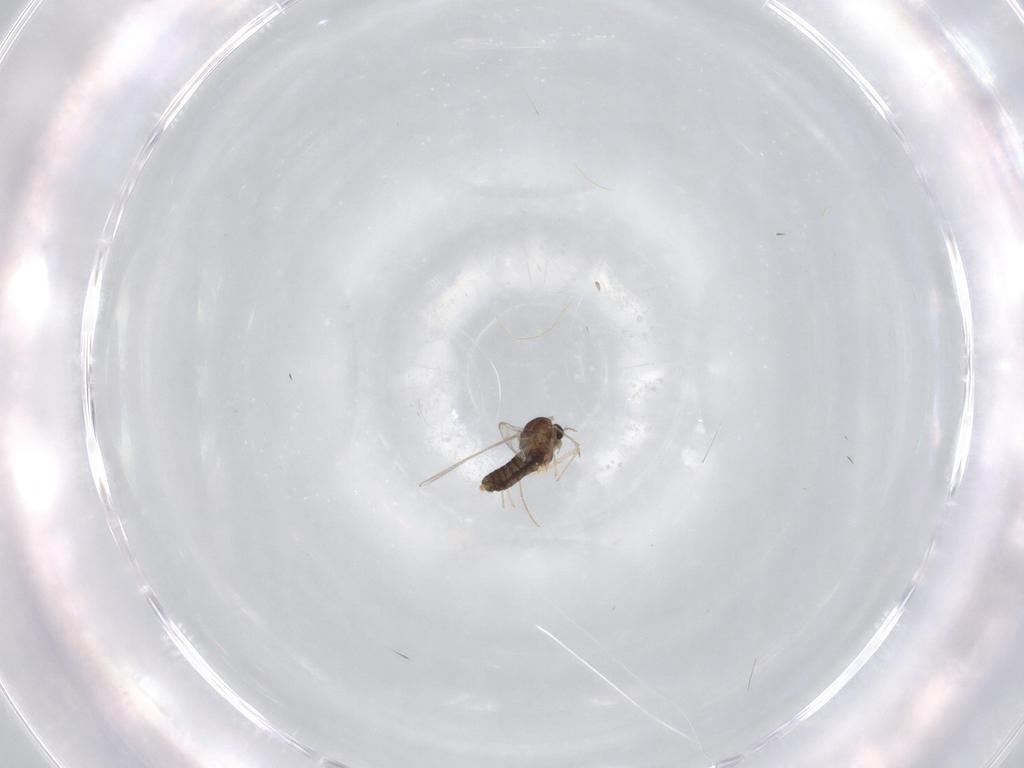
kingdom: Animalia
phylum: Arthropoda
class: Insecta
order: Diptera
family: Chironomidae
